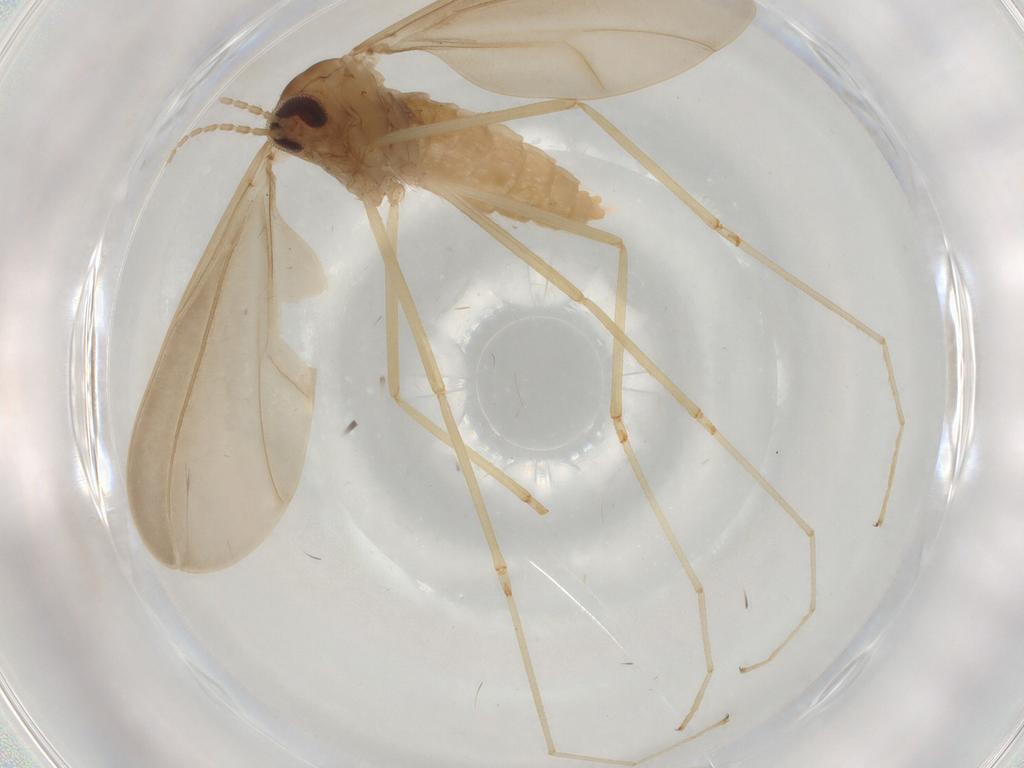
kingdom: Animalia
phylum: Arthropoda
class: Insecta
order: Diptera
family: Cecidomyiidae
